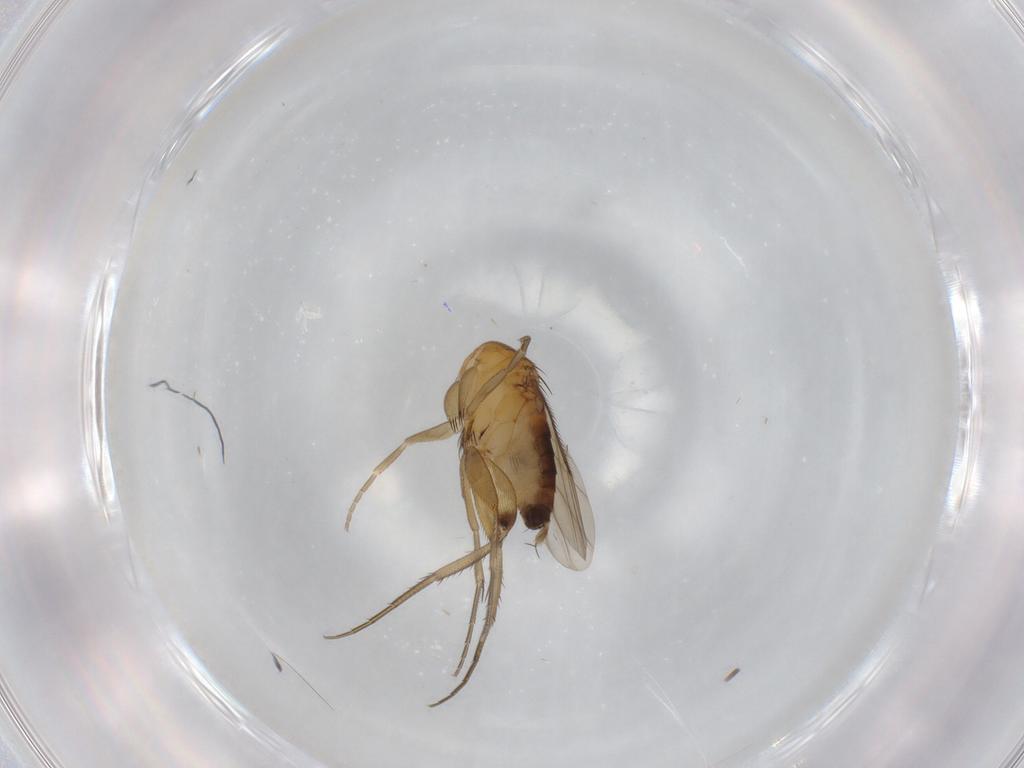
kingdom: Animalia
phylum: Arthropoda
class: Insecta
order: Diptera
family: Phoridae
